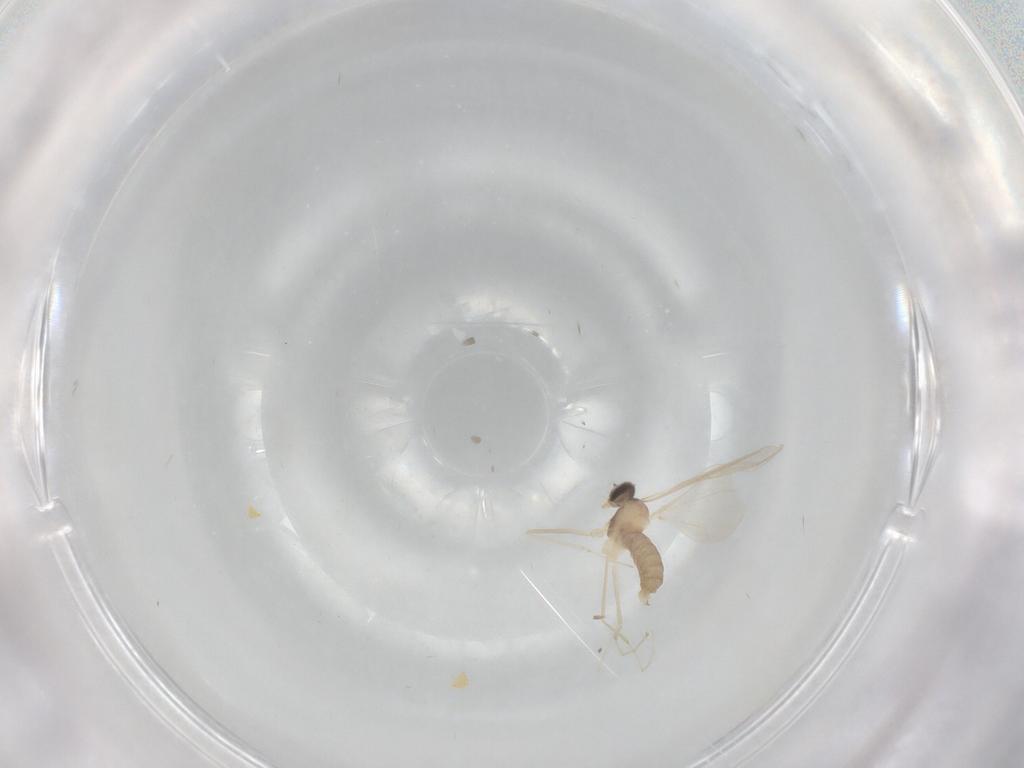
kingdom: Animalia
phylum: Arthropoda
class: Insecta
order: Diptera
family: Cecidomyiidae
